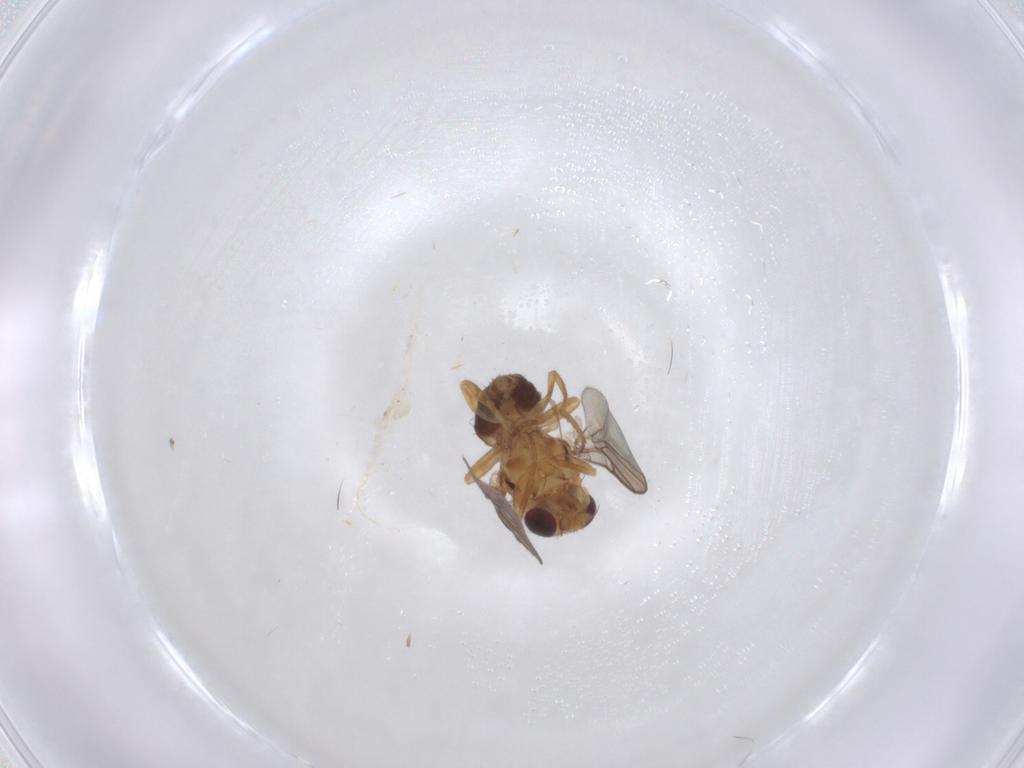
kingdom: Animalia
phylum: Arthropoda
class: Insecta
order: Diptera
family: Chloropidae
